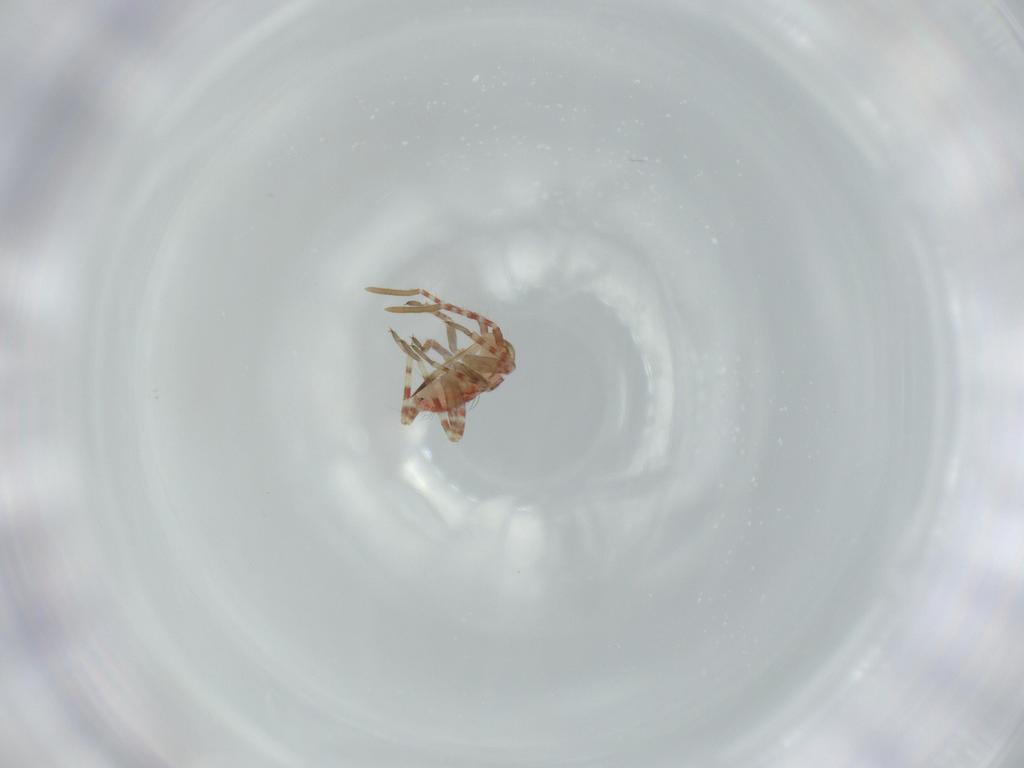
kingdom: Animalia
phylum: Arthropoda
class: Insecta
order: Hemiptera
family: Miridae
